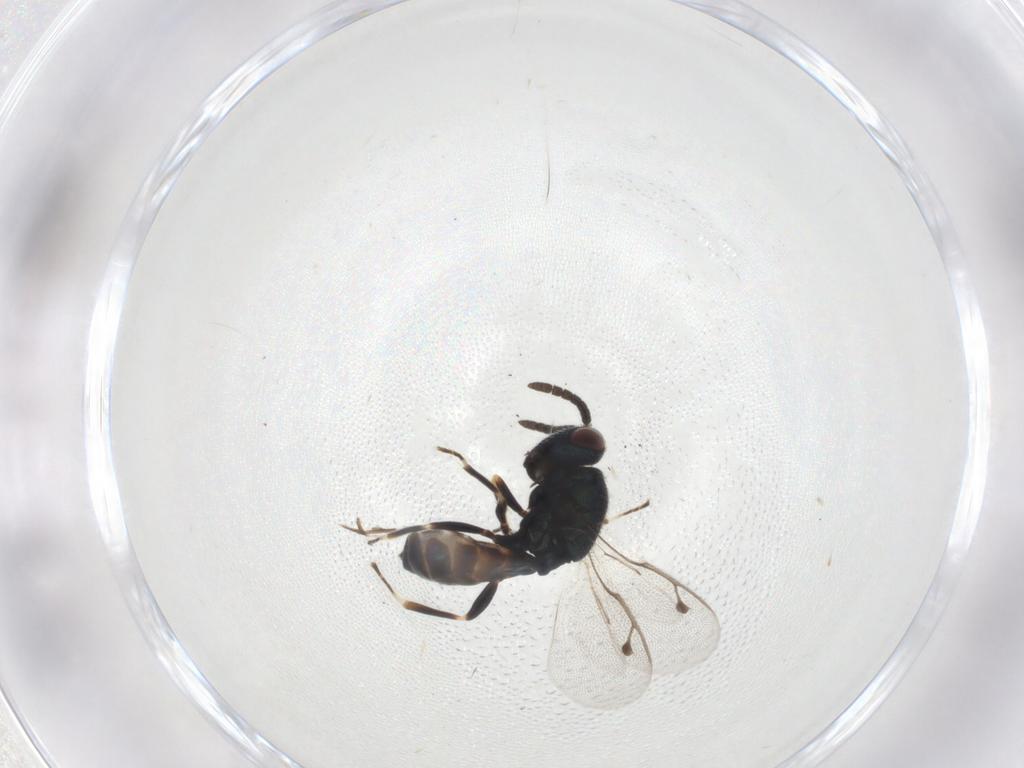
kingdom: Animalia
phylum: Arthropoda
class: Insecta
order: Hymenoptera
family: Pteromalidae
